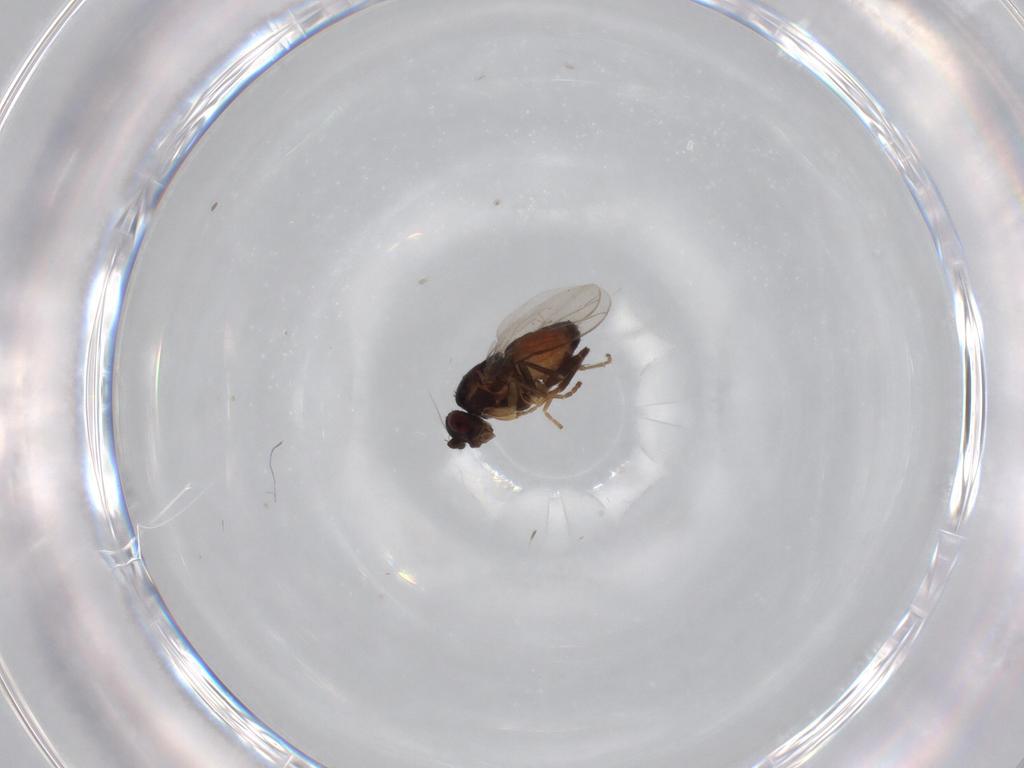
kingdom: Animalia
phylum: Arthropoda
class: Insecta
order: Diptera
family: Sphaeroceridae
